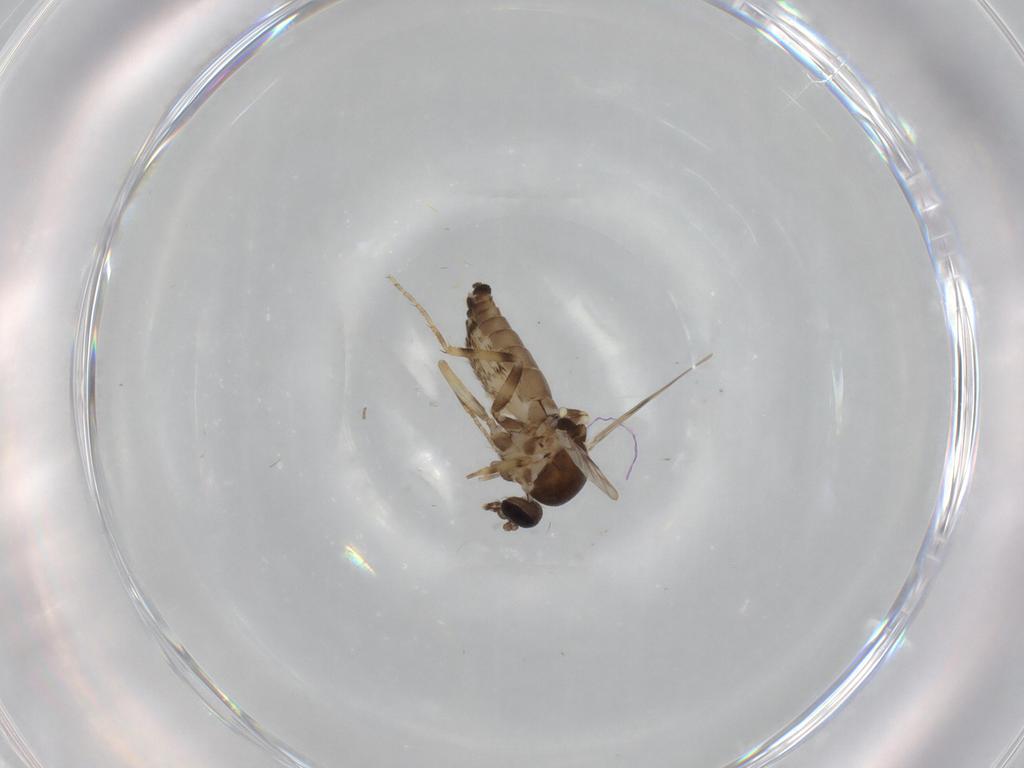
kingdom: Animalia
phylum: Arthropoda
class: Insecta
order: Diptera
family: Ceratopogonidae
